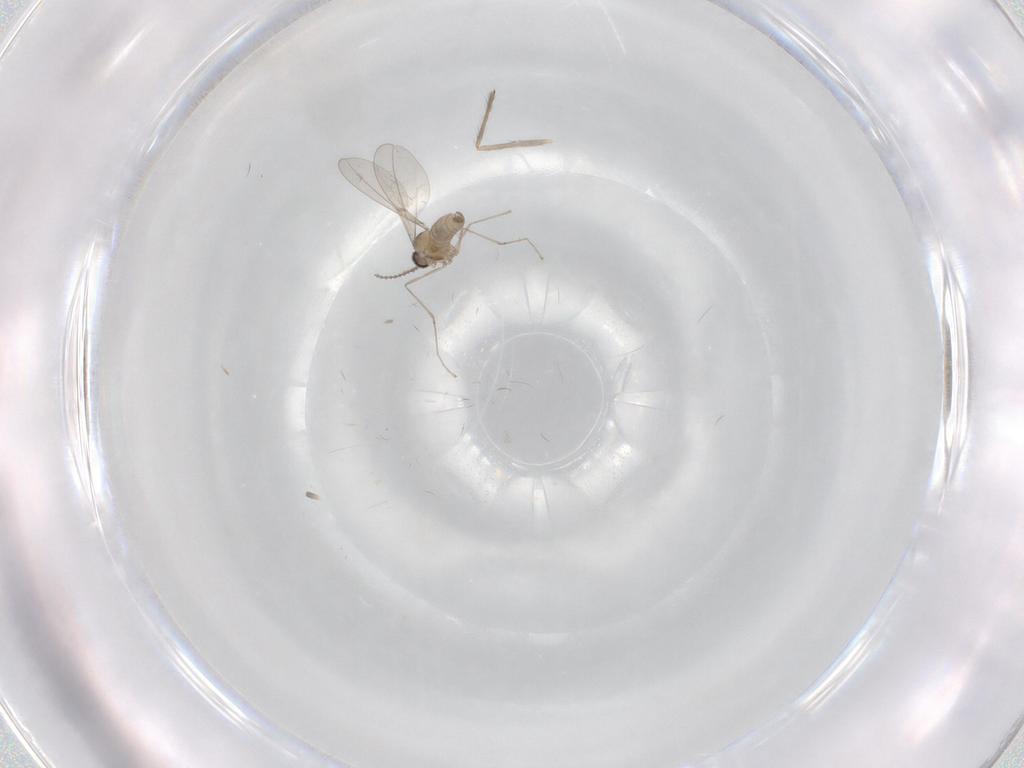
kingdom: Animalia
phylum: Arthropoda
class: Insecta
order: Diptera
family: Chironomidae
